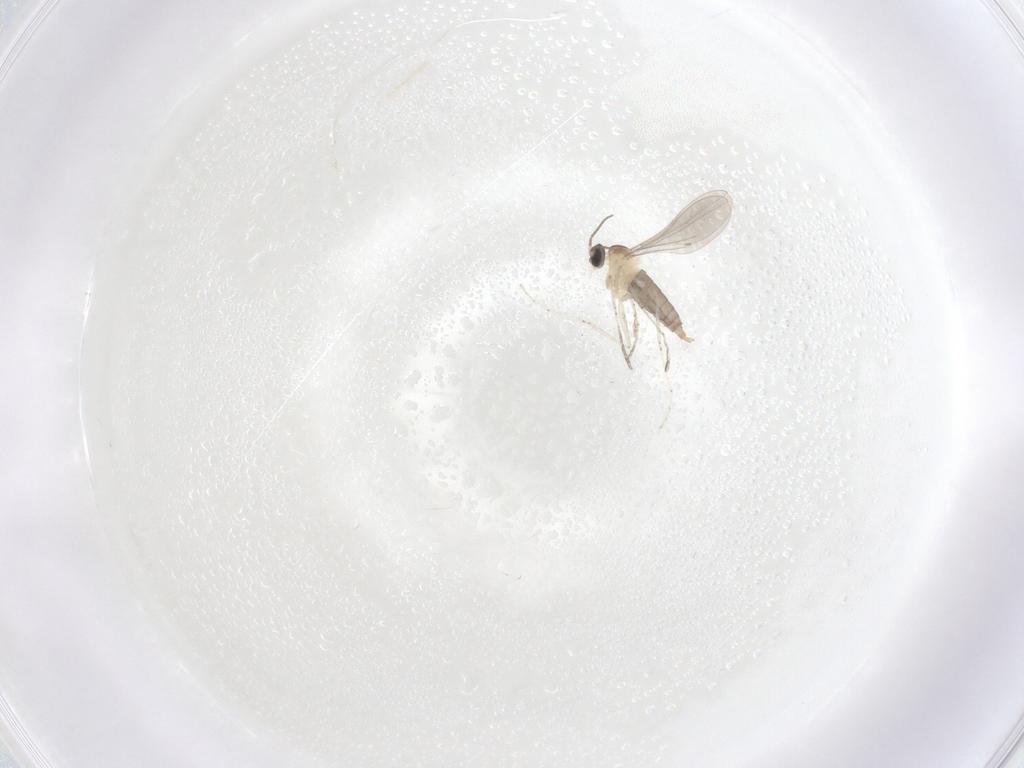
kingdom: Animalia
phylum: Arthropoda
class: Insecta
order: Diptera
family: Cecidomyiidae
